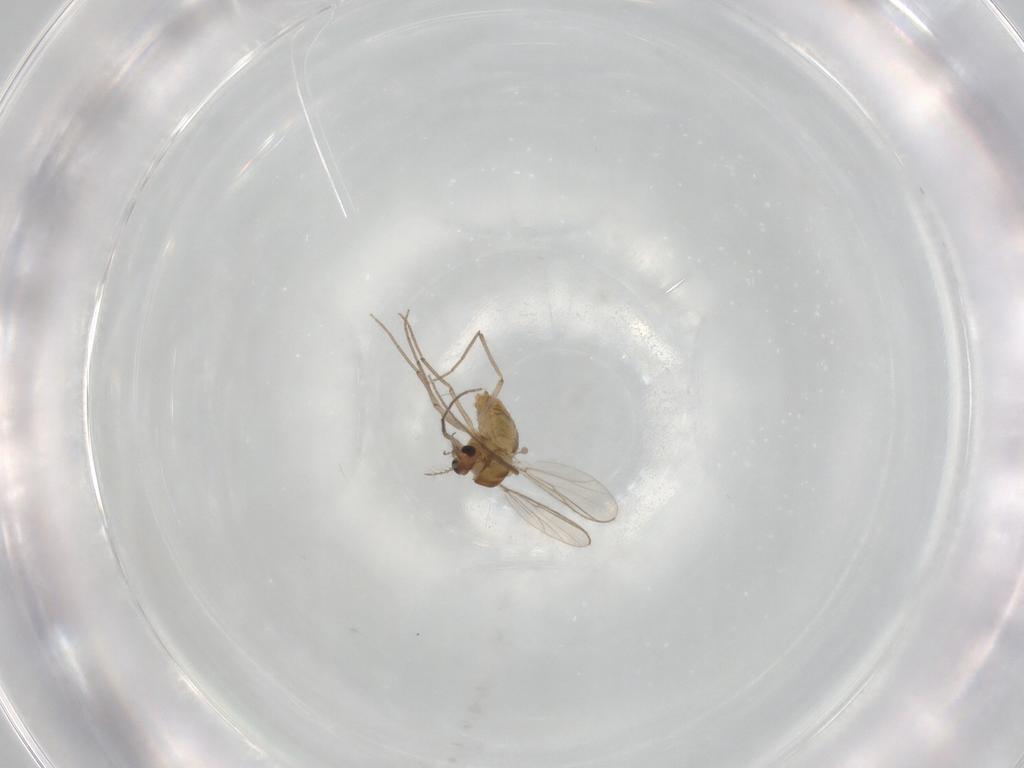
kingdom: Animalia
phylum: Arthropoda
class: Insecta
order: Diptera
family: Chironomidae
